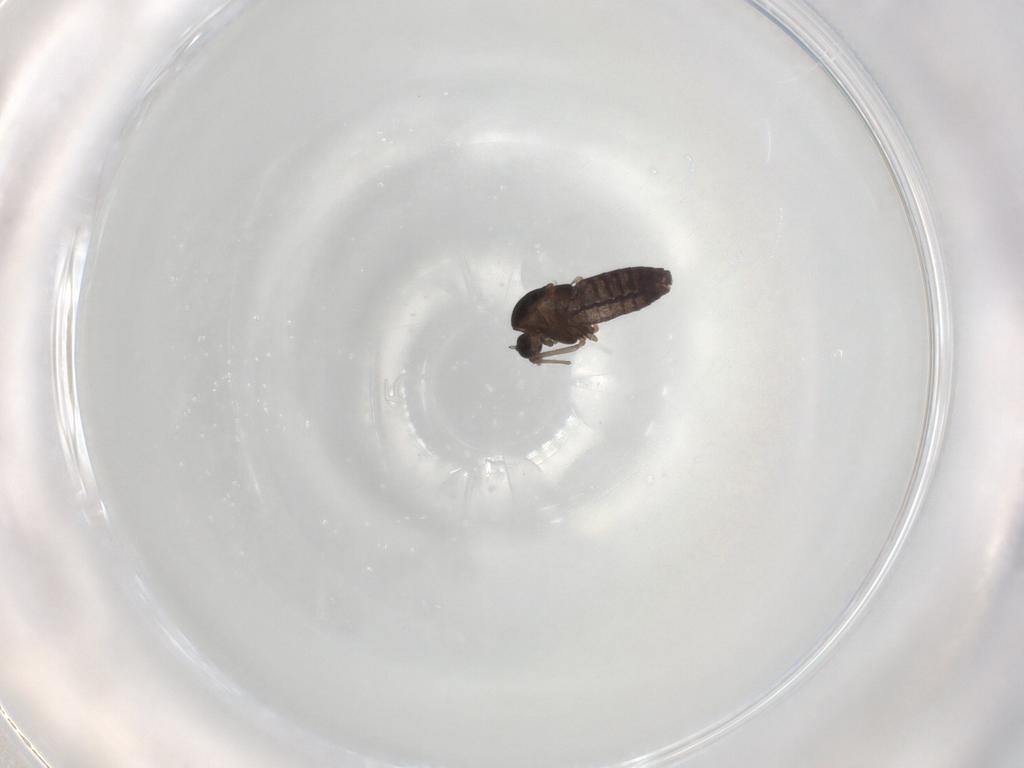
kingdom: Animalia
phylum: Arthropoda
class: Insecta
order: Diptera
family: Chironomidae
